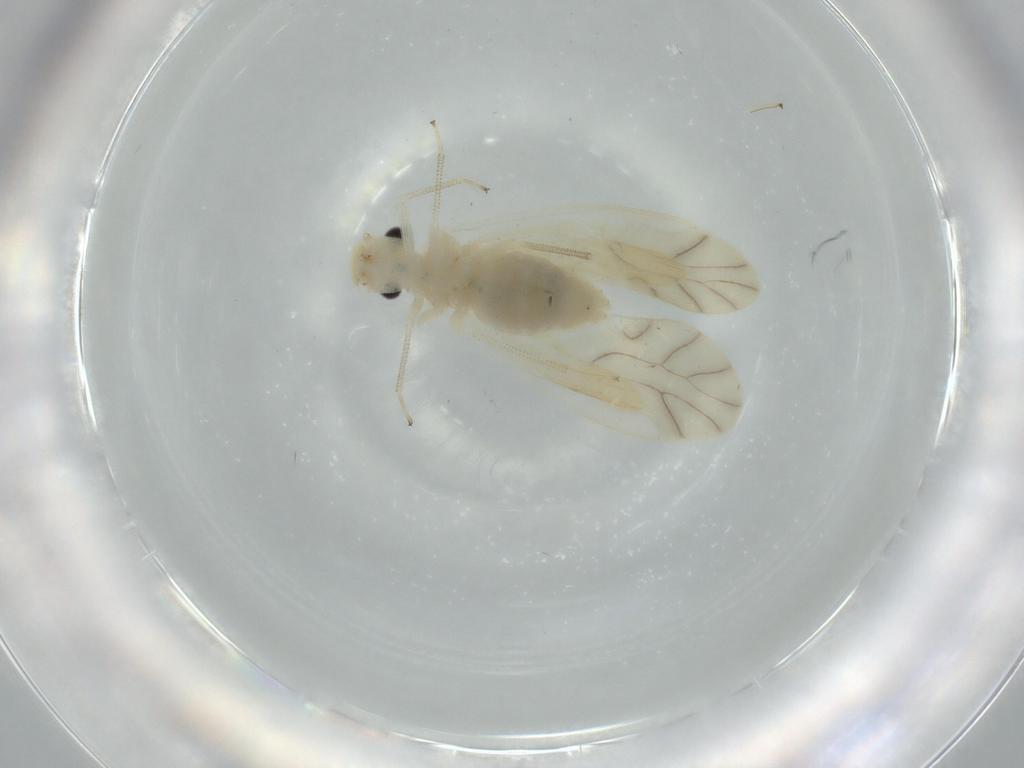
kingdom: Animalia
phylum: Arthropoda
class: Insecta
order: Psocodea
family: Caeciliusidae
